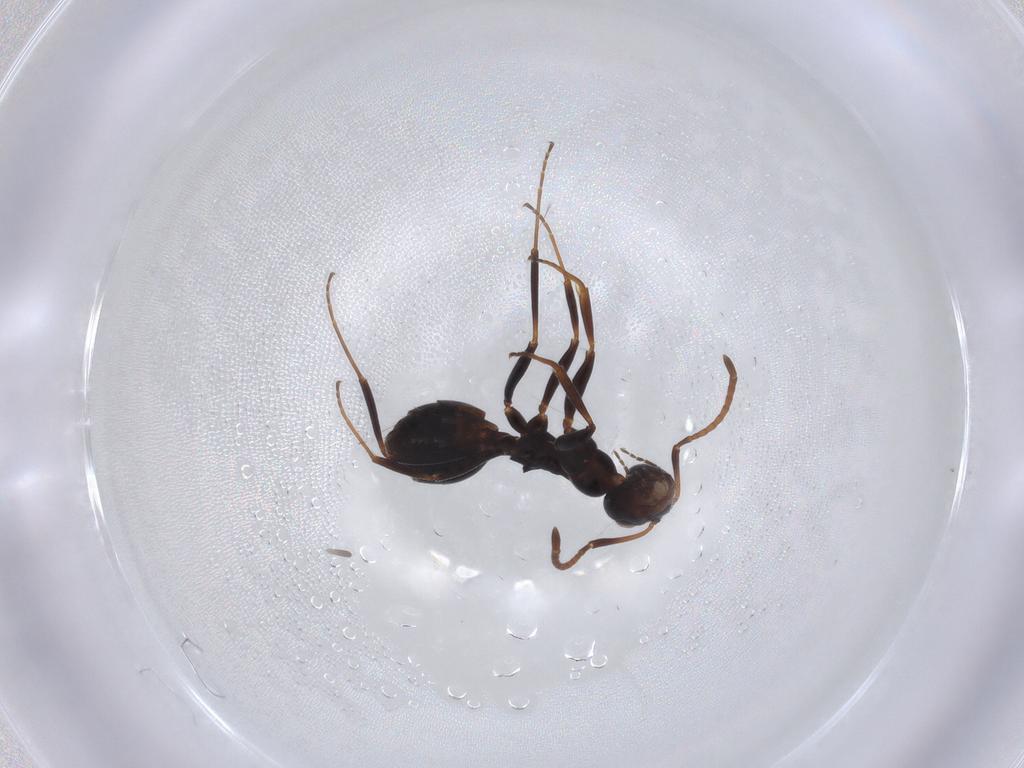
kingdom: Animalia
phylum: Arthropoda
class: Insecta
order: Hymenoptera
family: Formicidae
